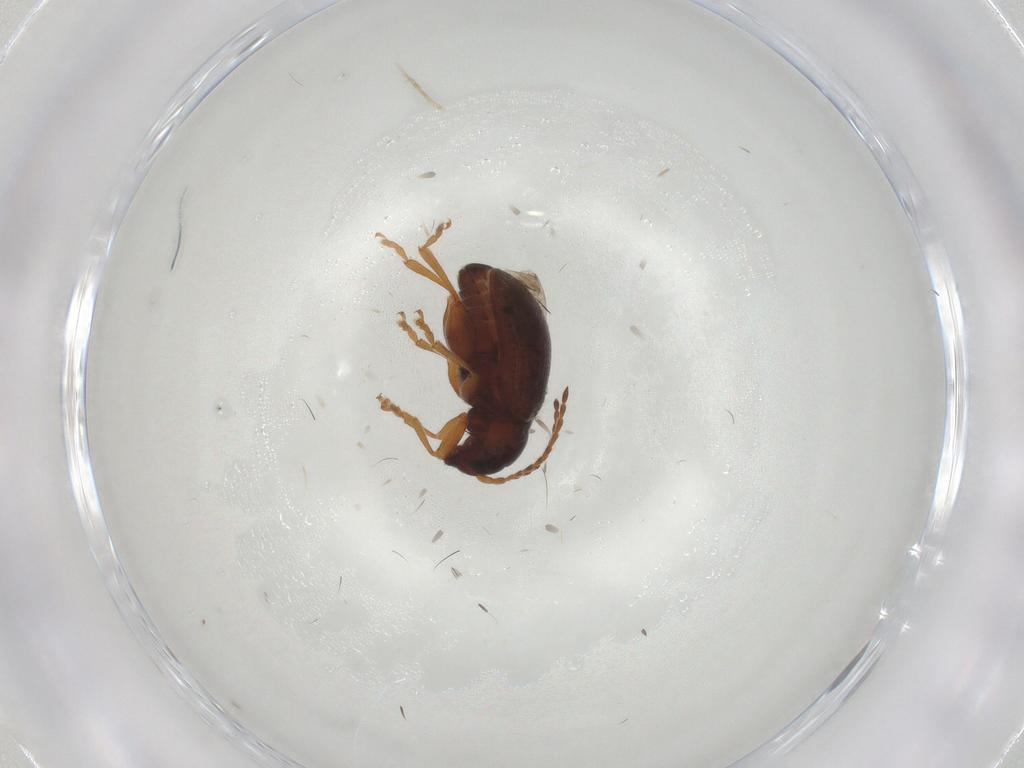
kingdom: Animalia
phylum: Arthropoda
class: Insecta
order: Coleoptera
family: Chrysomelidae
